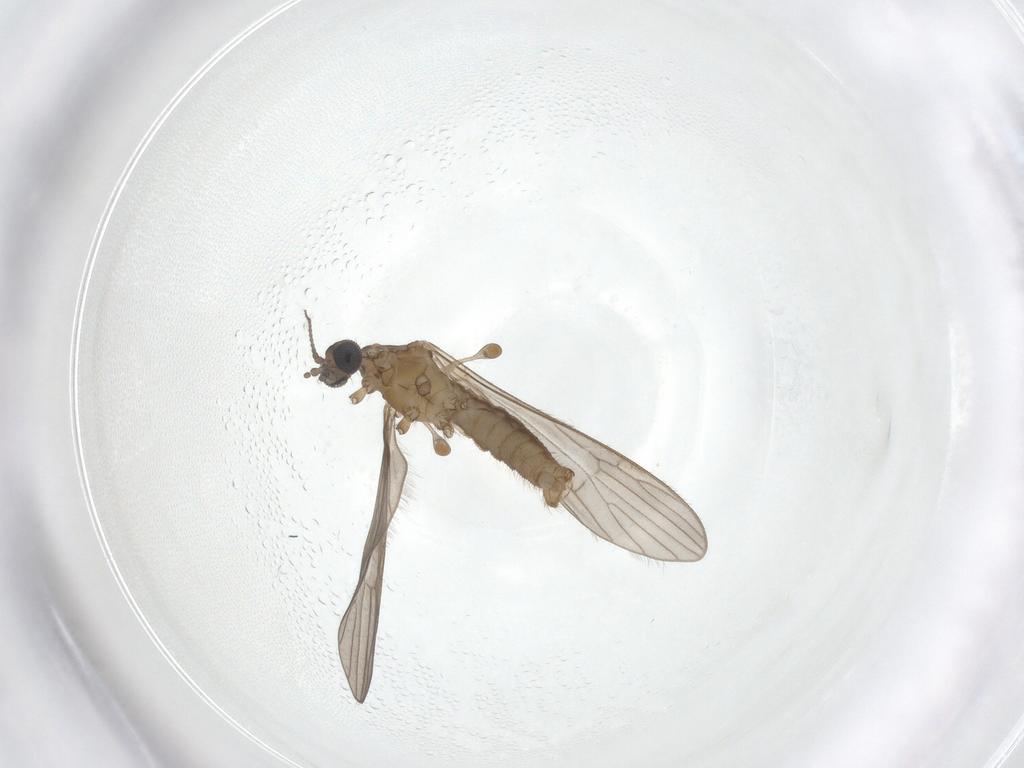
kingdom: Animalia
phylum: Arthropoda
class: Insecta
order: Diptera
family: Limoniidae
